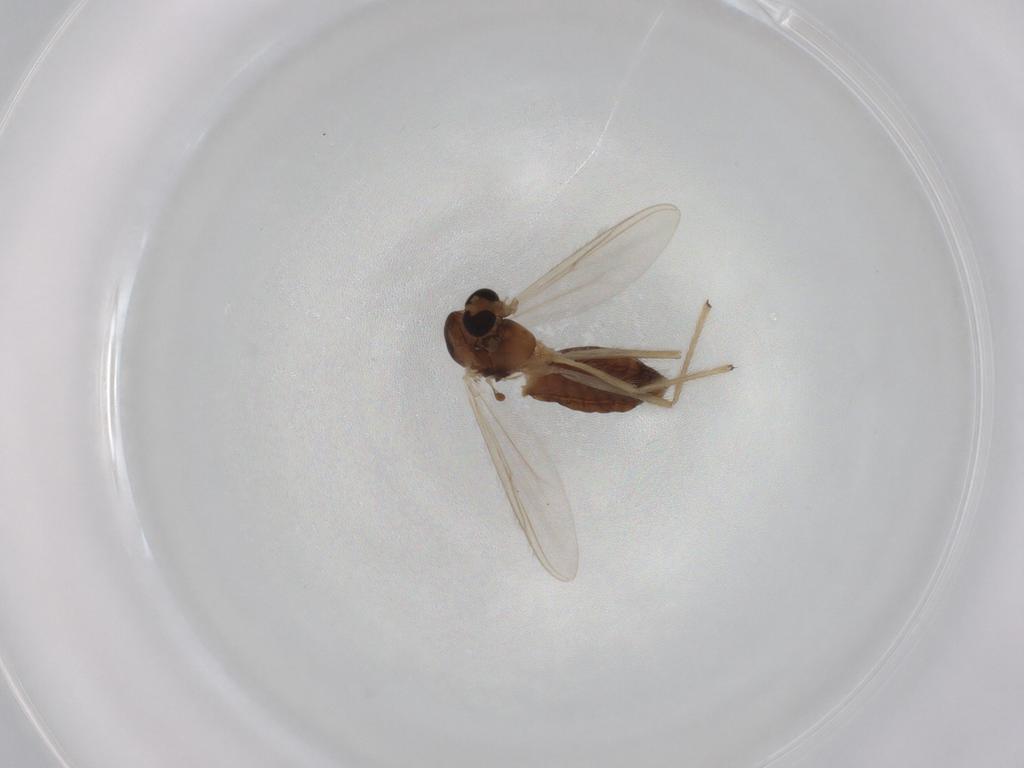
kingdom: Animalia
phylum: Arthropoda
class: Insecta
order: Diptera
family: Chironomidae
